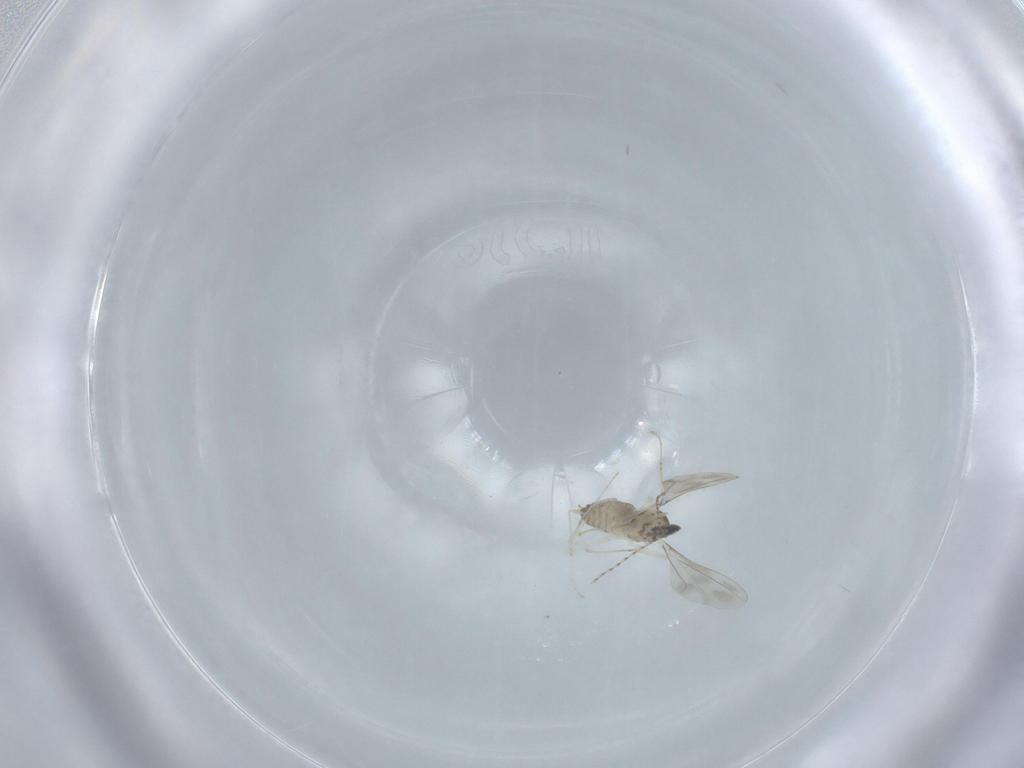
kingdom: Animalia
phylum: Arthropoda
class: Insecta
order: Diptera
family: Cecidomyiidae
